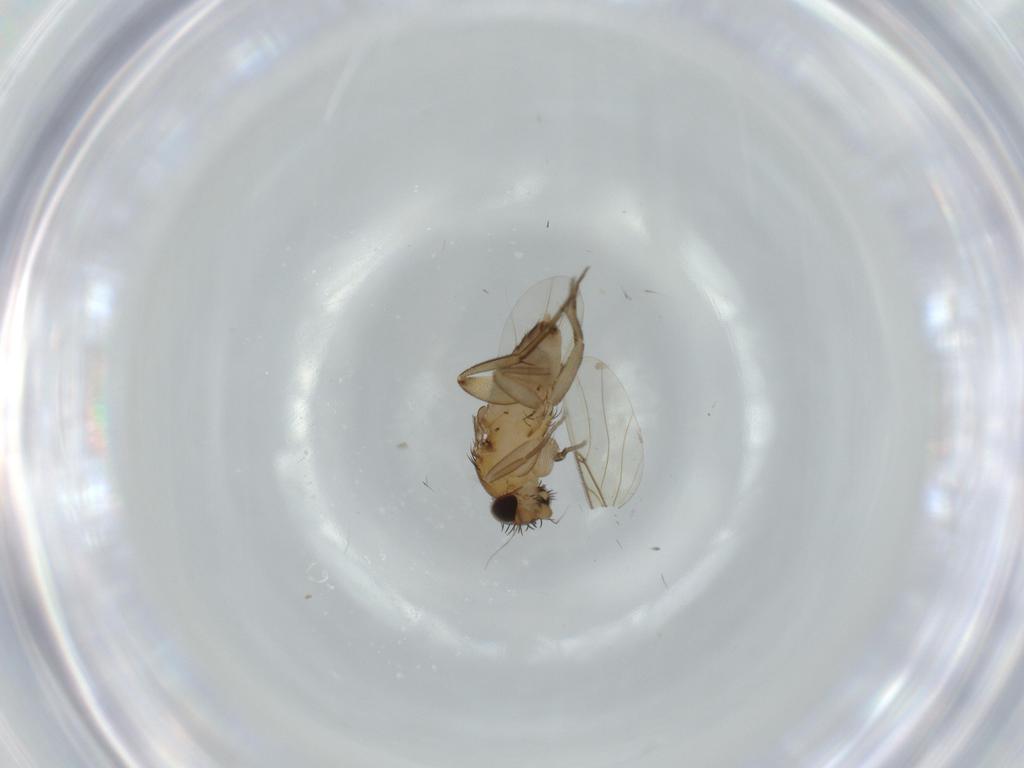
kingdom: Animalia
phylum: Arthropoda
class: Insecta
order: Diptera
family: Phoridae
